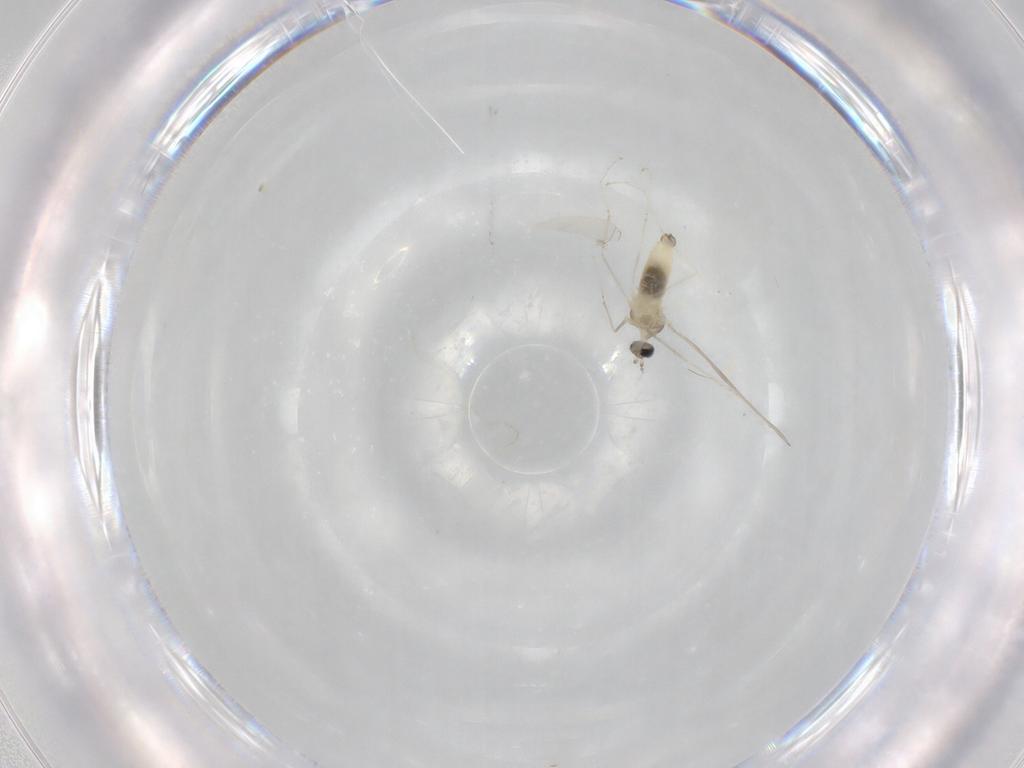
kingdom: Animalia
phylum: Arthropoda
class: Insecta
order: Diptera
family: Cecidomyiidae
